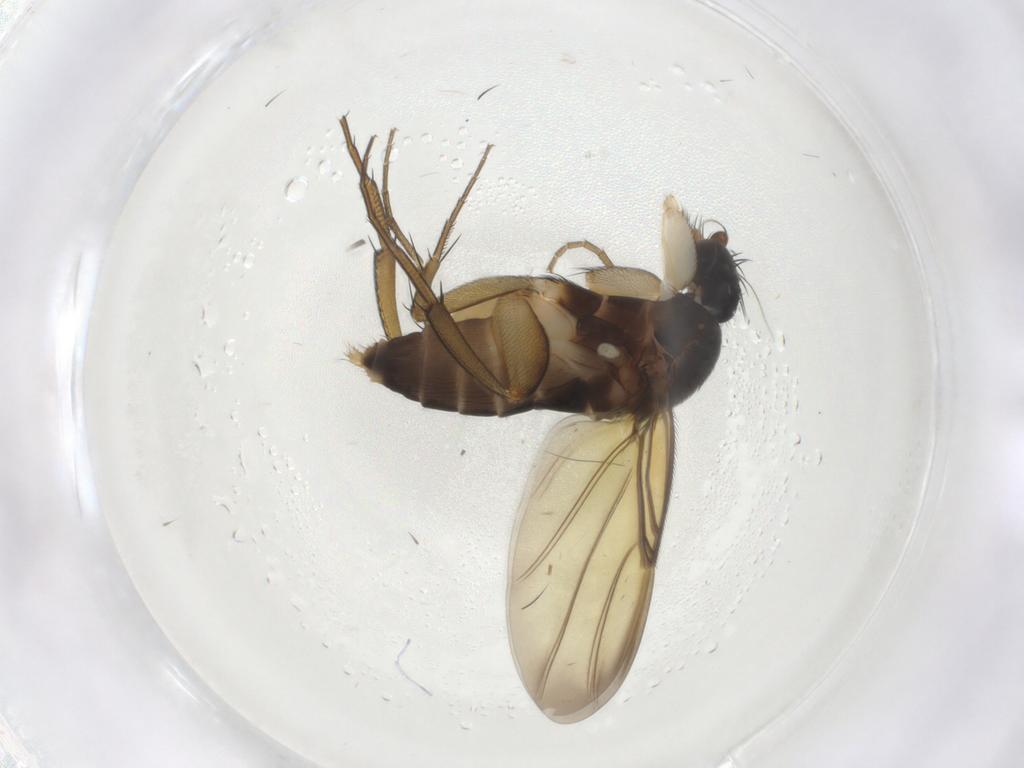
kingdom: Animalia
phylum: Arthropoda
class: Insecta
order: Diptera
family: Phoridae
